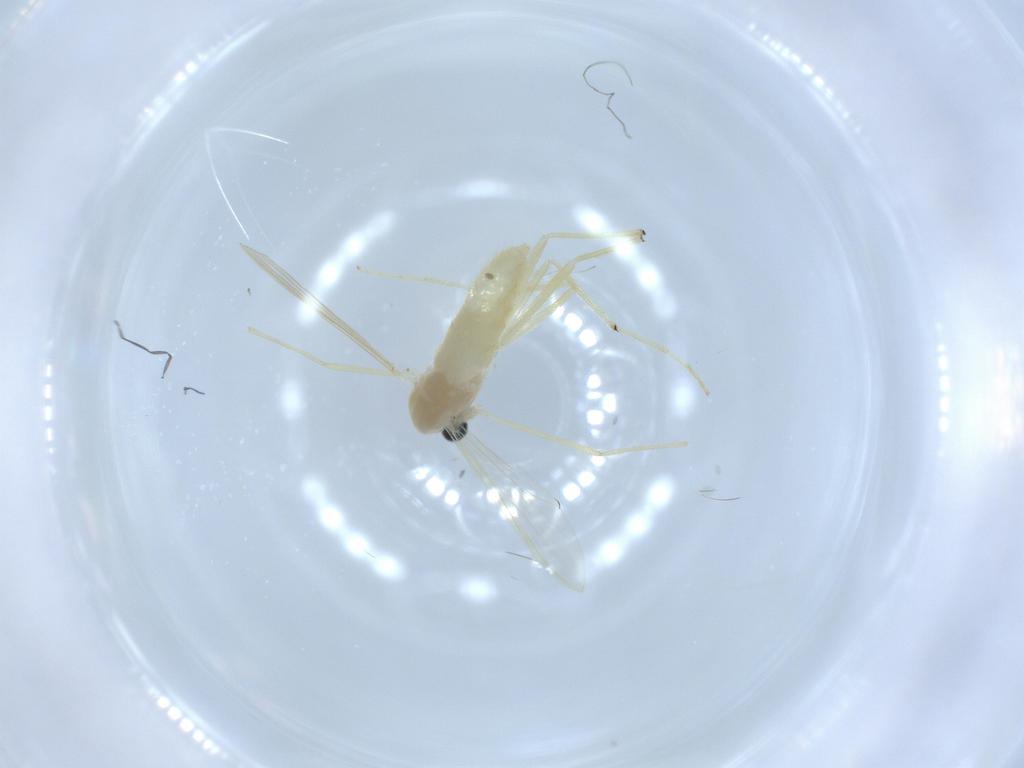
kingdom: Animalia
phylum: Arthropoda
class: Insecta
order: Diptera
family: Chironomidae
